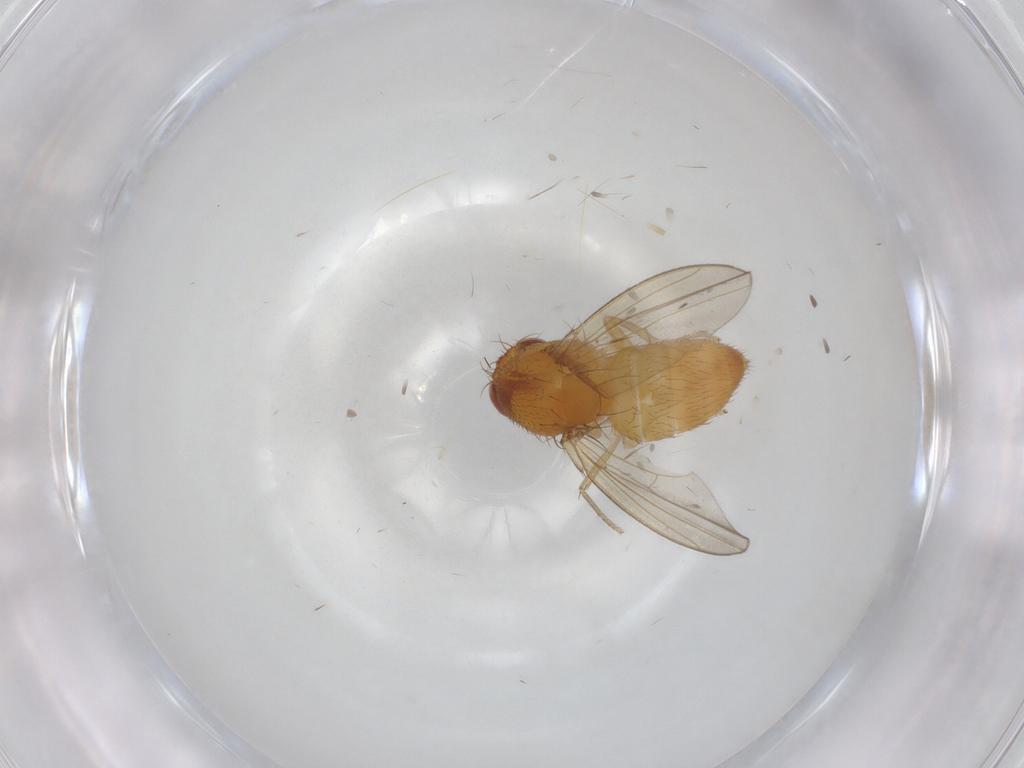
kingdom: Animalia
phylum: Arthropoda
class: Insecta
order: Diptera
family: Drosophilidae
